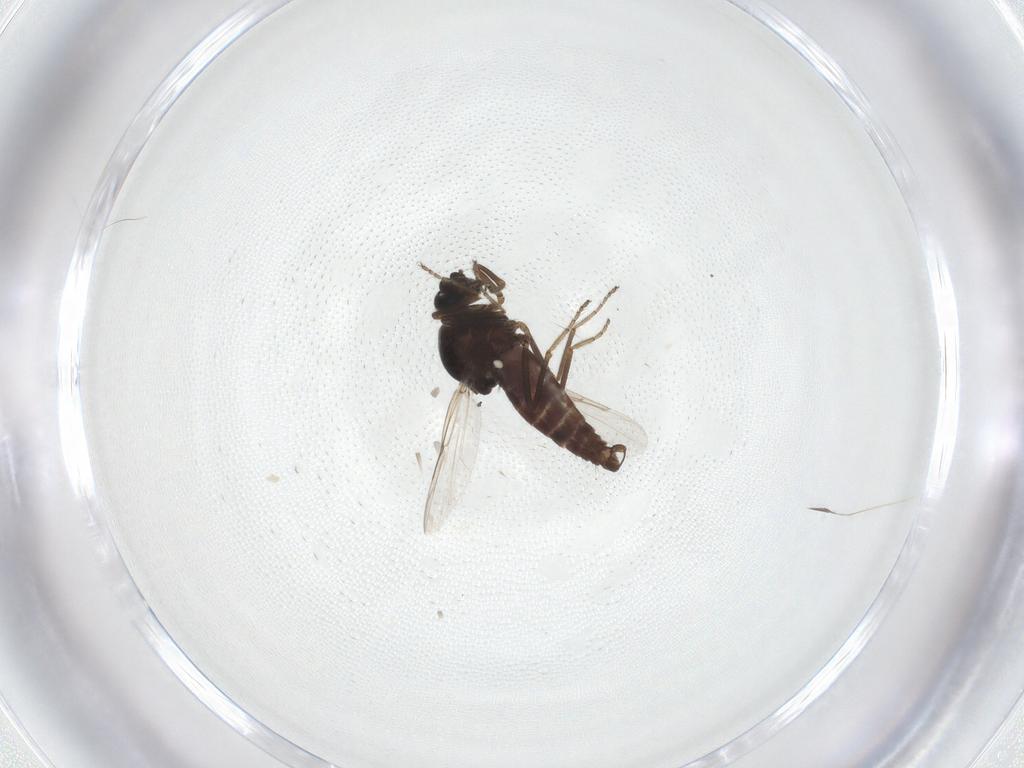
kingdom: Animalia
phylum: Arthropoda
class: Insecta
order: Diptera
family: Ceratopogonidae
